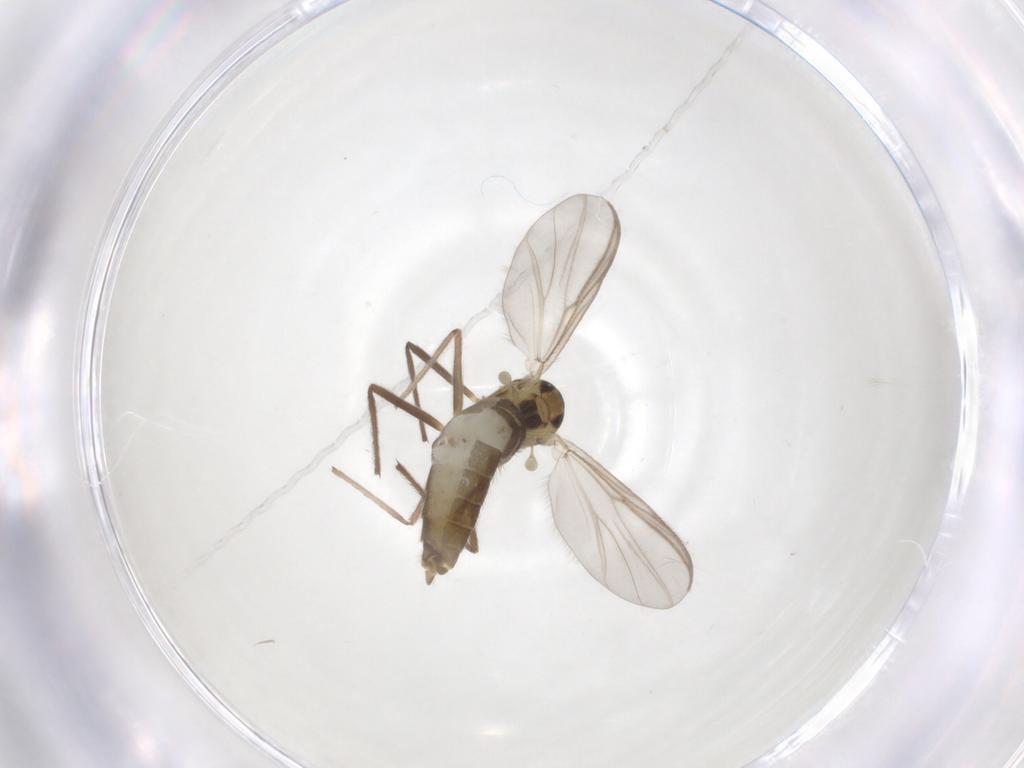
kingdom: Animalia
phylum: Arthropoda
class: Insecta
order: Diptera
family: Chironomidae
